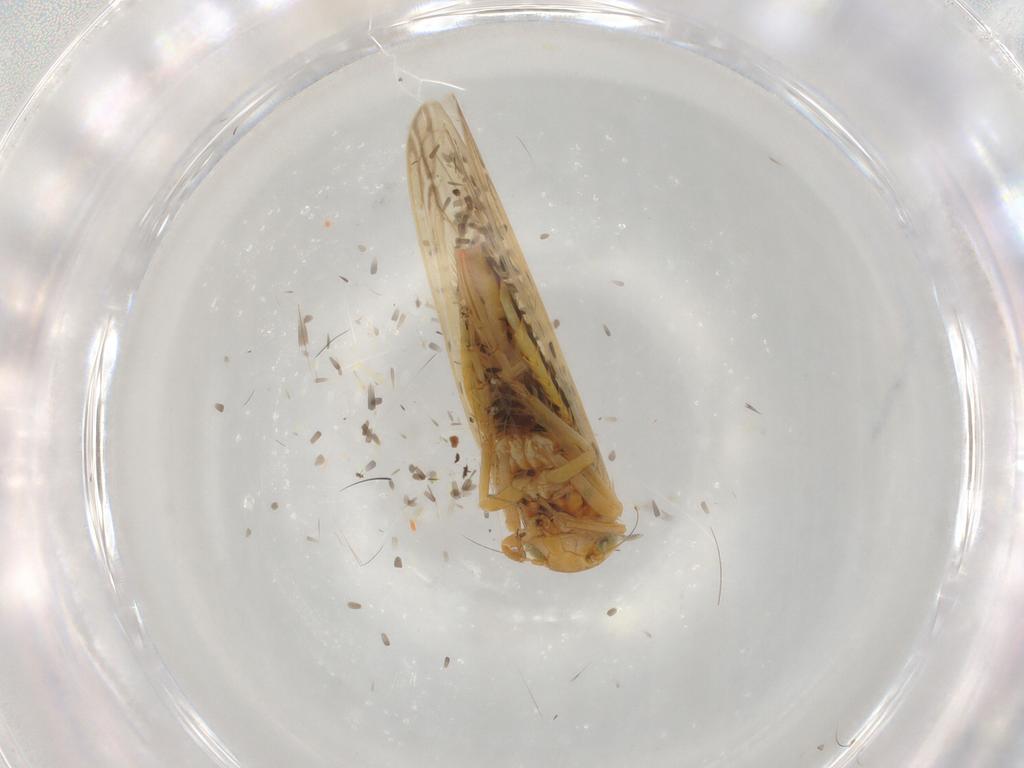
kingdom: Animalia
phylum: Arthropoda
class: Insecta
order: Hemiptera
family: Cicadellidae
